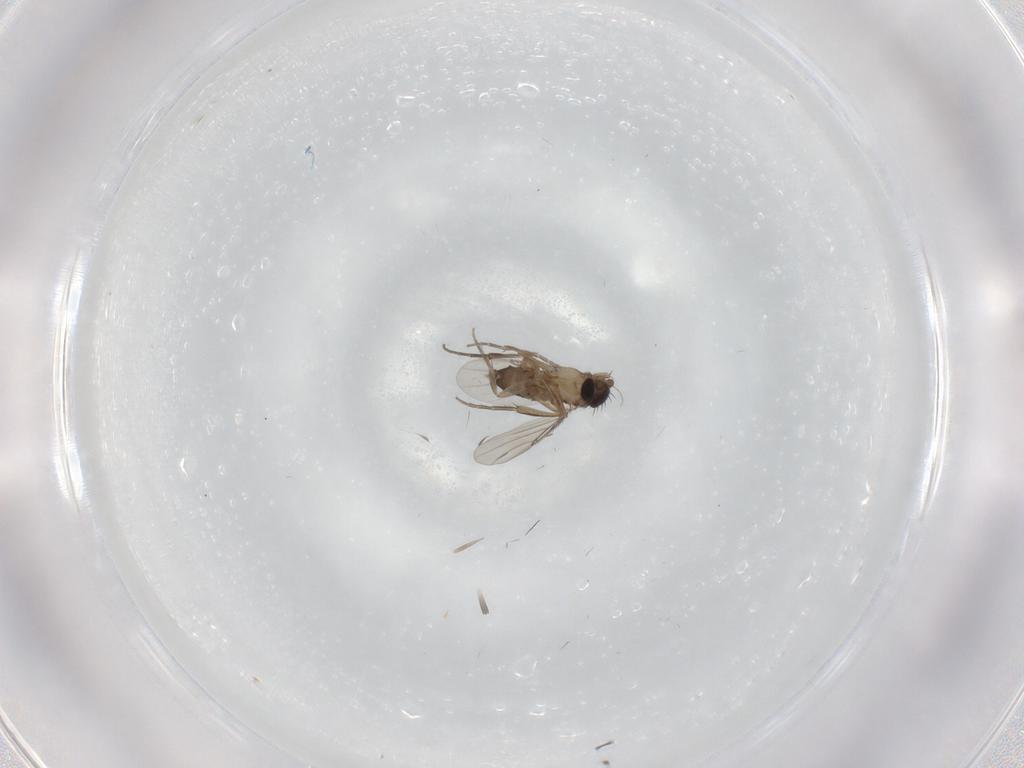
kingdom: Animalia
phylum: Arthropoda
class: Insecta
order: Diptera
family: Phoridae
